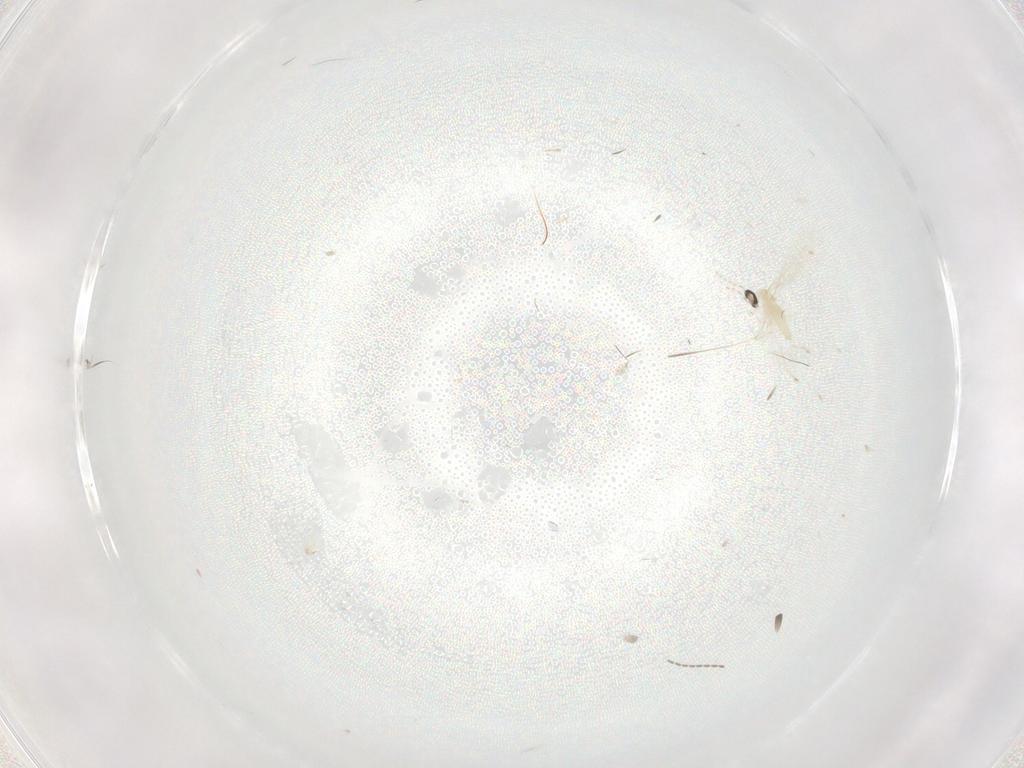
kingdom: Animalia
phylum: Arthropoda
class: Insecta
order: Diptera
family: Cecidomyiidae
